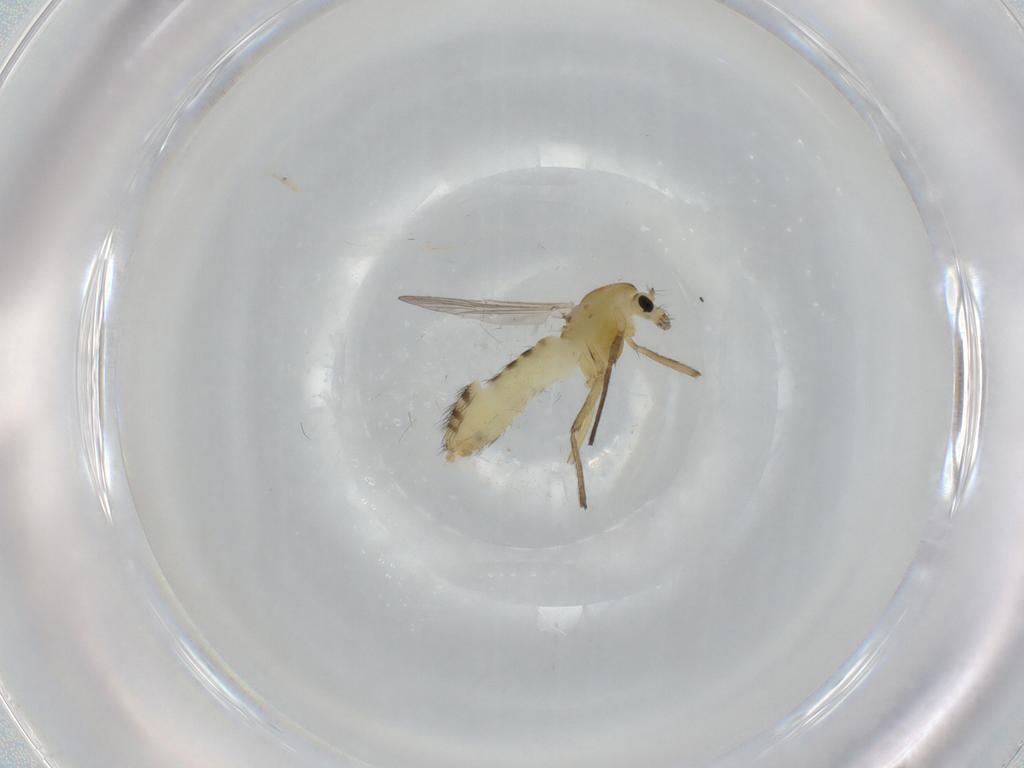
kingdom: Animalia
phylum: Arthropoda
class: Insecta
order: Diptera
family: Chironomidae
